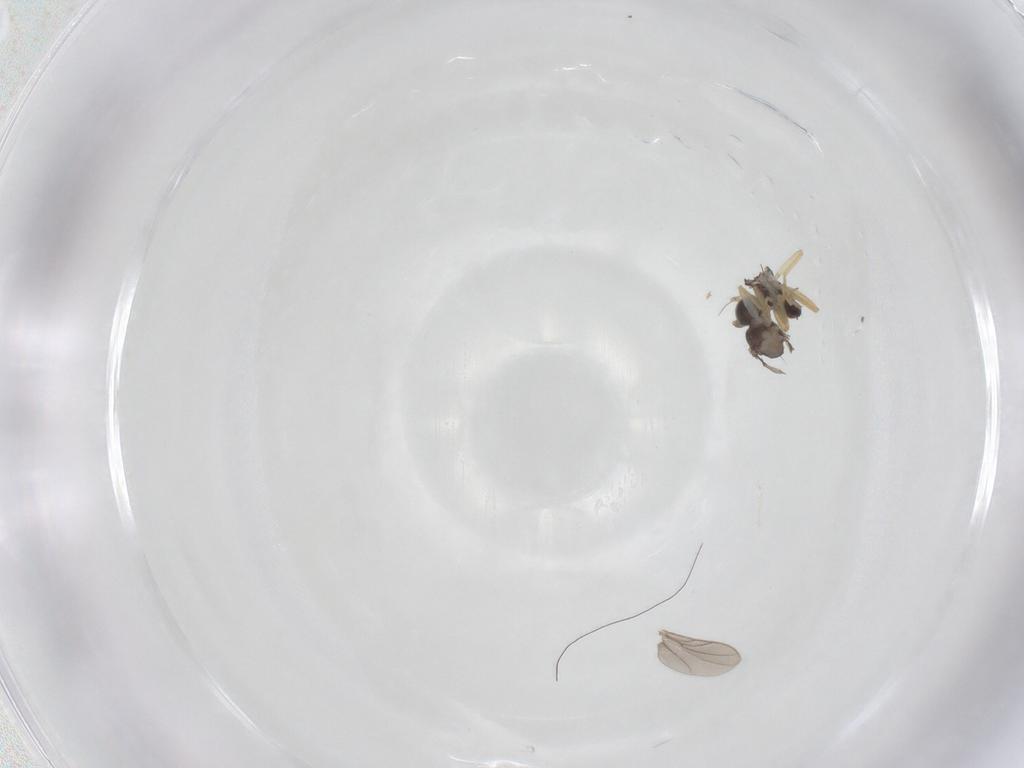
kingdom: Animalia
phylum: Arthropoda
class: Insecta
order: Diptera
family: Hybotidae
